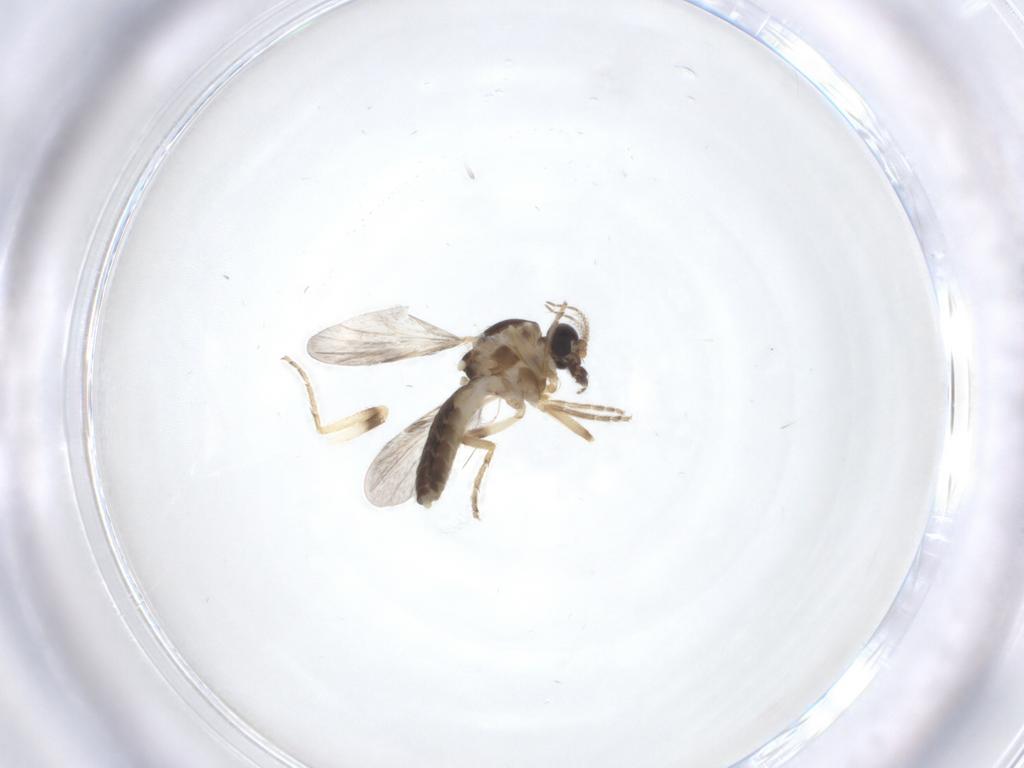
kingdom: Animalia
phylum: Arthropoda
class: Insecta
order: Diptera
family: Ceratopogonidae
